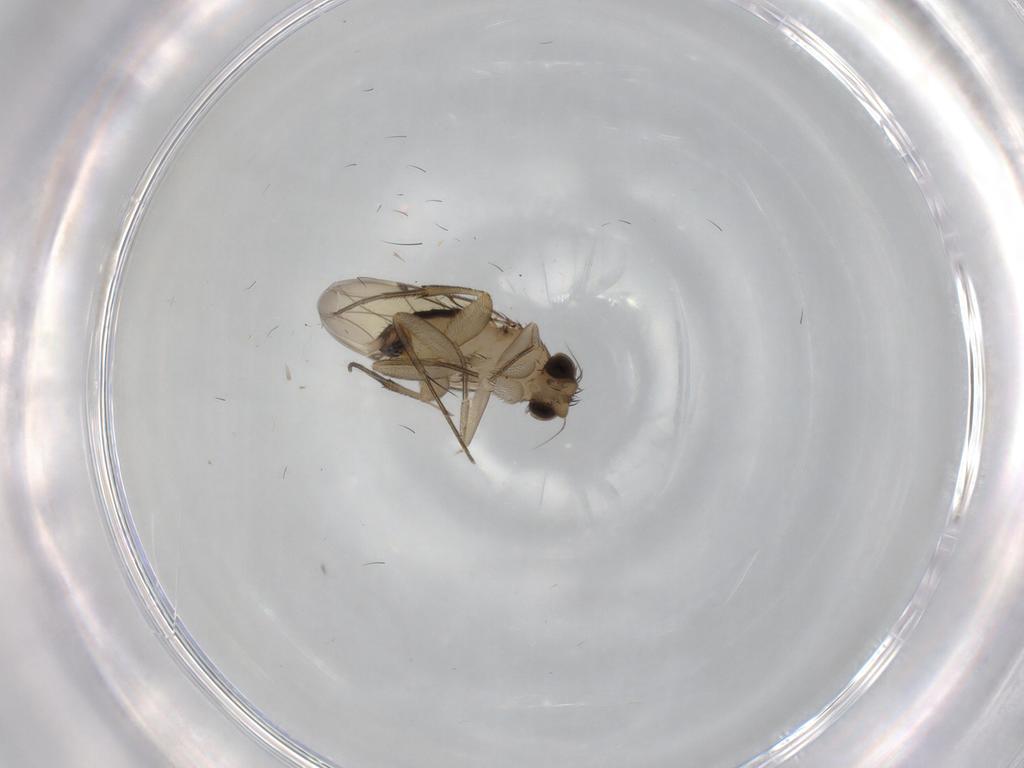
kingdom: Animalia
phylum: Arthropoda
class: Insecta
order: Diptera
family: Phoridae
